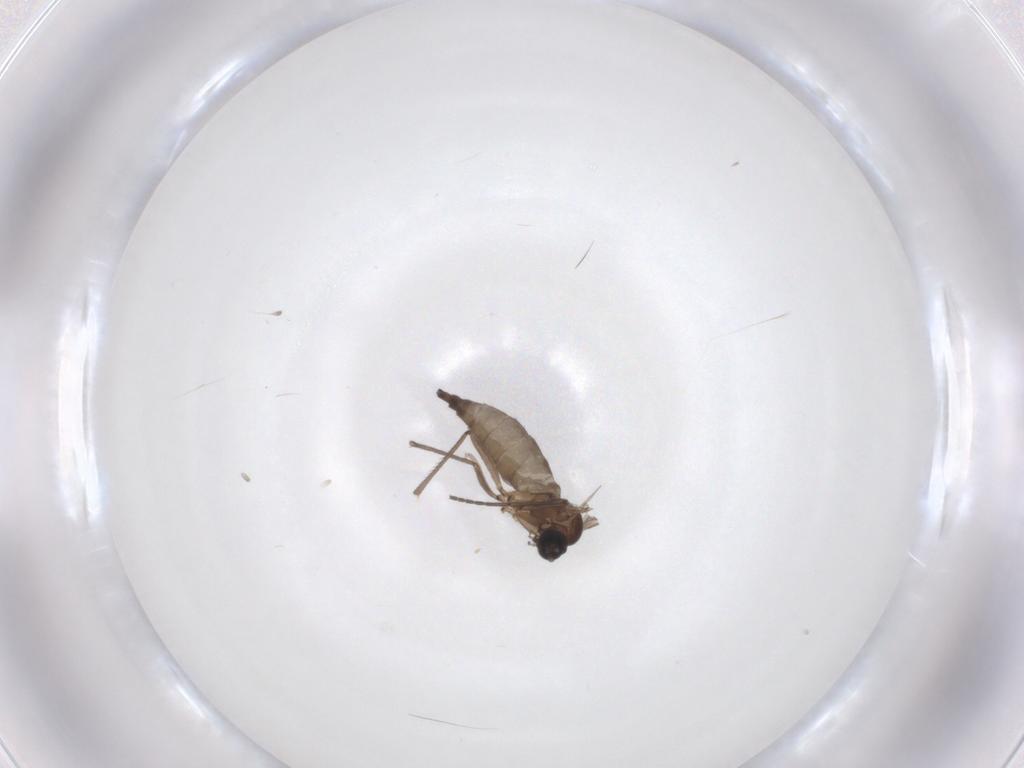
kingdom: Animalia
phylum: Arthropoda
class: Insecta
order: Diptera
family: Sciaridae
